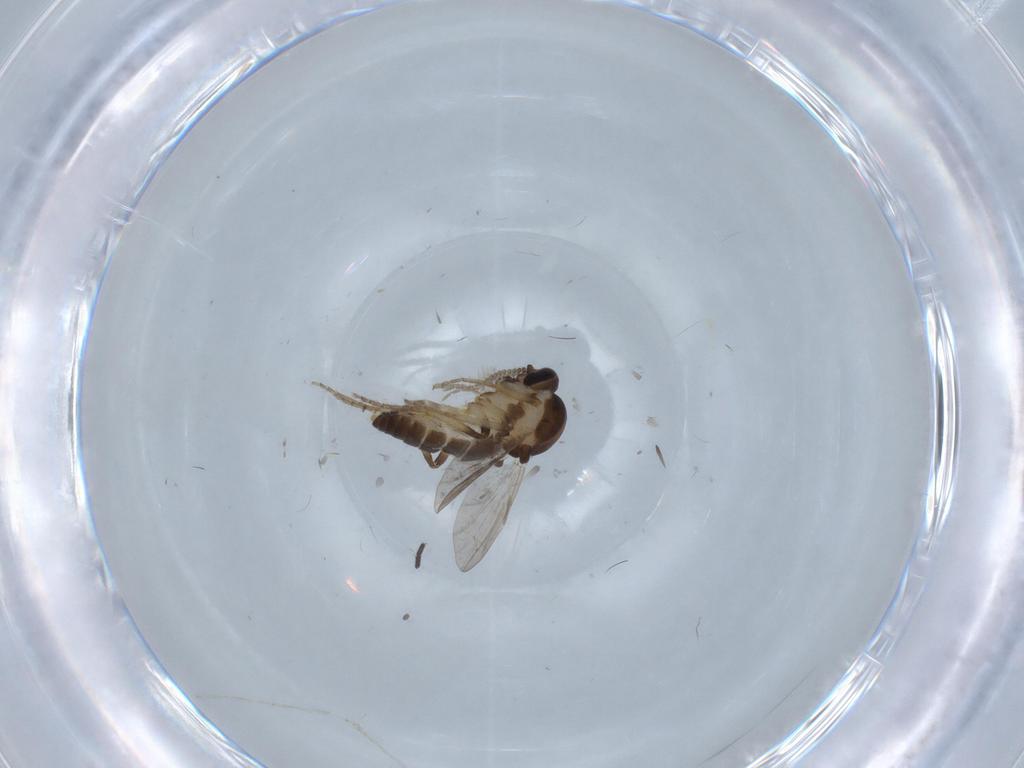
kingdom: Animalia
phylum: Arthropoda
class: Insecta
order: Diptera
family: Ceratopogonidae
